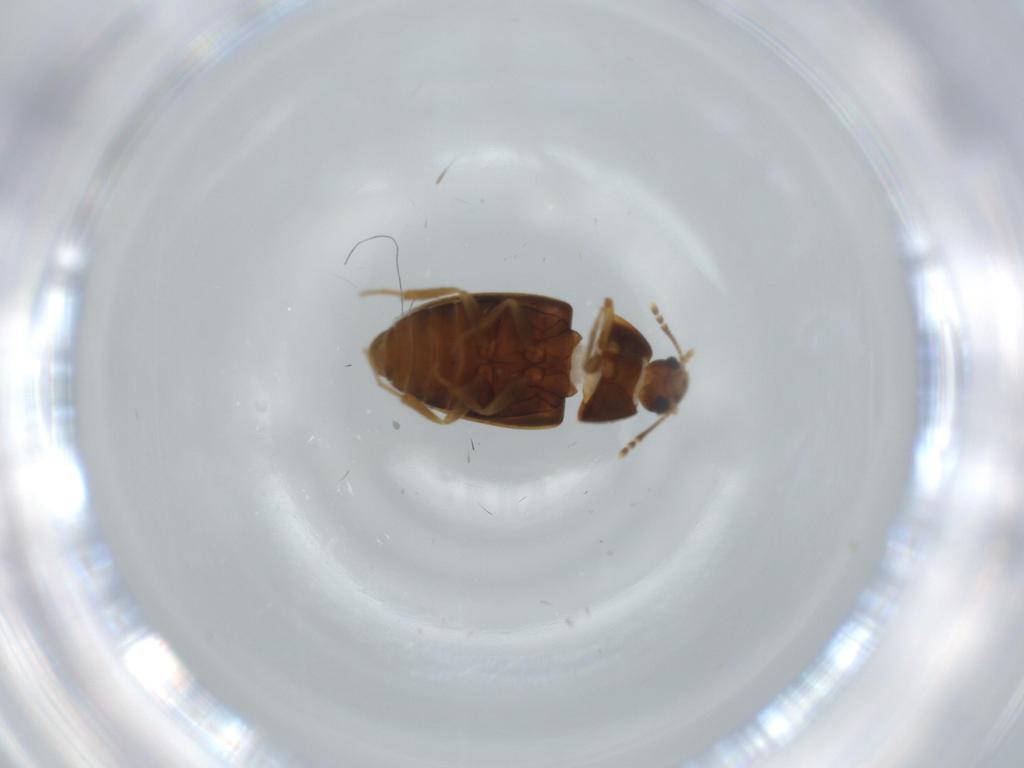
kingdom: Animalia
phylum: Arthropoda
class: Insecta
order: Coleoptera
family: Mycetophagidae
